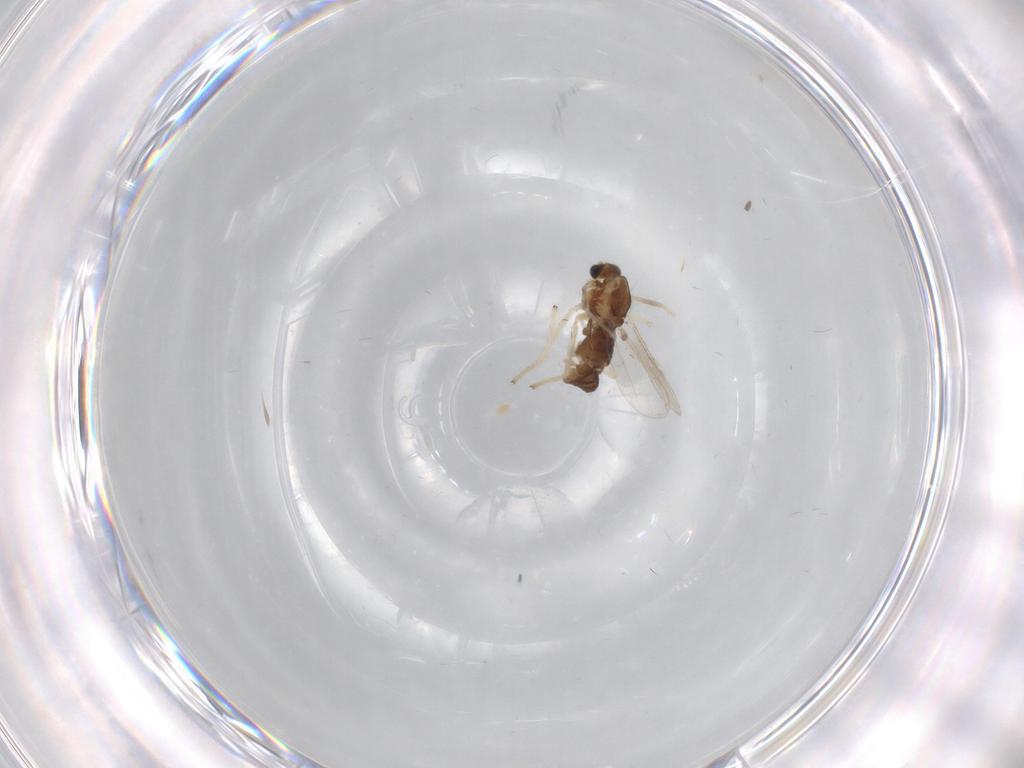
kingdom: Animalia
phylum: Arthropoda
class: Insecta
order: Diptera
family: Chironomidae
